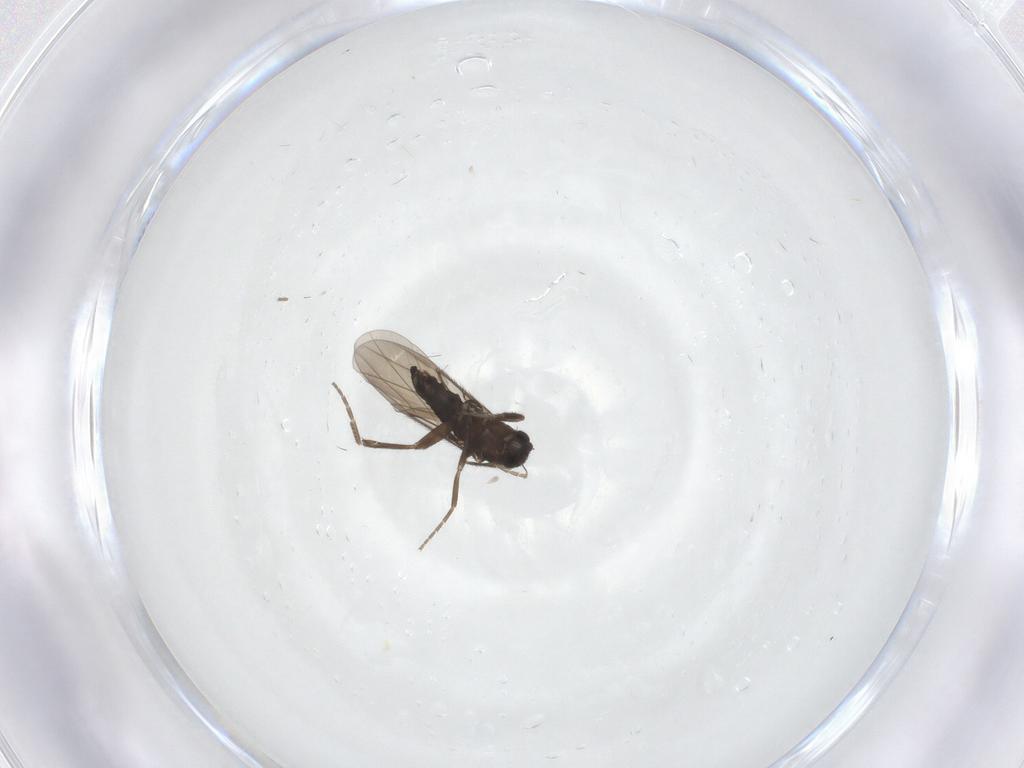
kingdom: Animalia
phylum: Arthropoda
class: Insecta
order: Diptera
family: Phoridae
